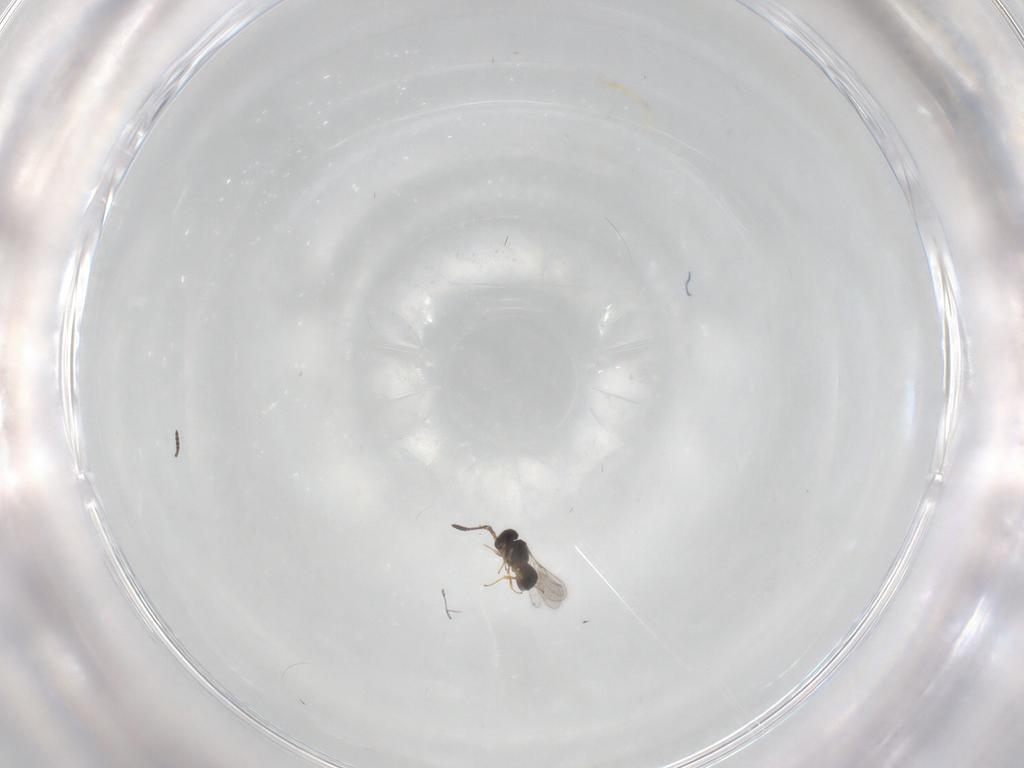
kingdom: Animalia
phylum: Arthropoda
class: Insecta
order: Hymenoptera
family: Scelionidae
